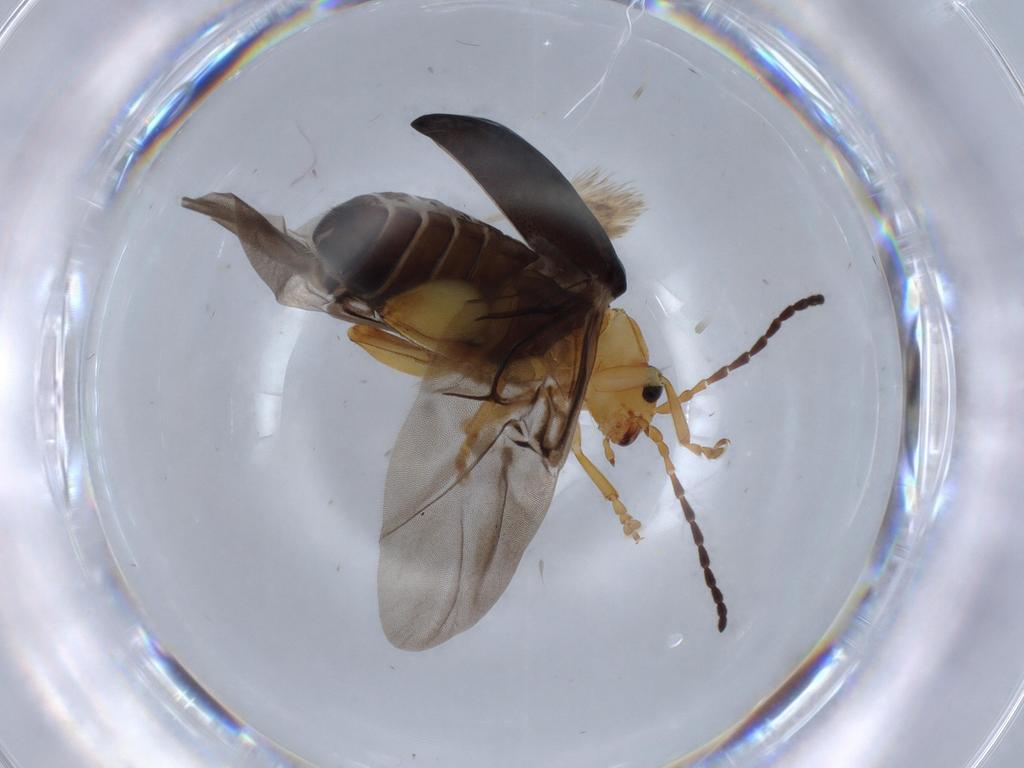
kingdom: Animalia
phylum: Arthropoda
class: Insecta
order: Coleoptera
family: Chrysomelidae
